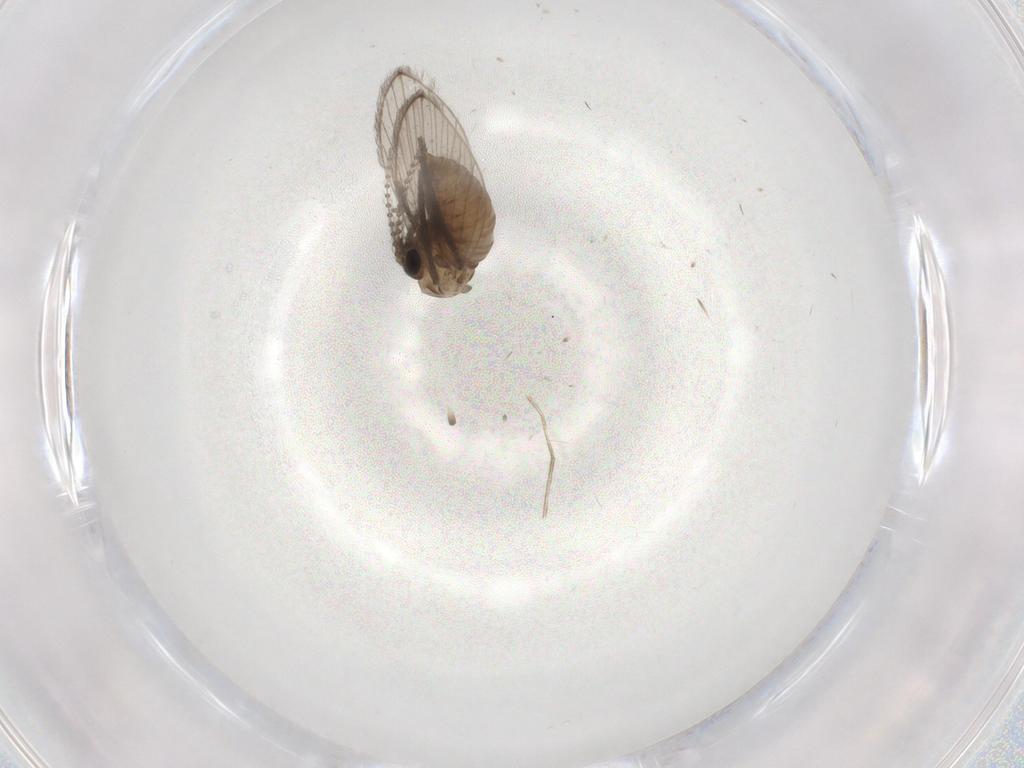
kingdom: Animalia
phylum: Arthropoda
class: Insecta
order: Diptera
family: Psychodidae
